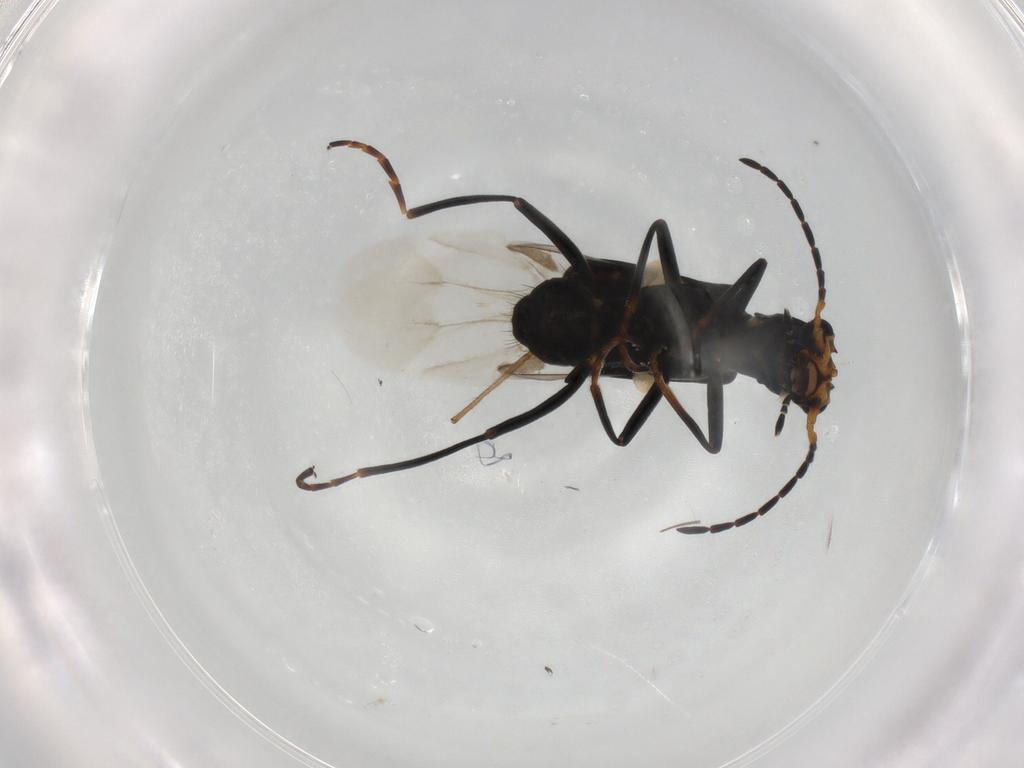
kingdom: Animalia
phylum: Arthropoda
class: Insecta
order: Coleoptera
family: Melyridae
